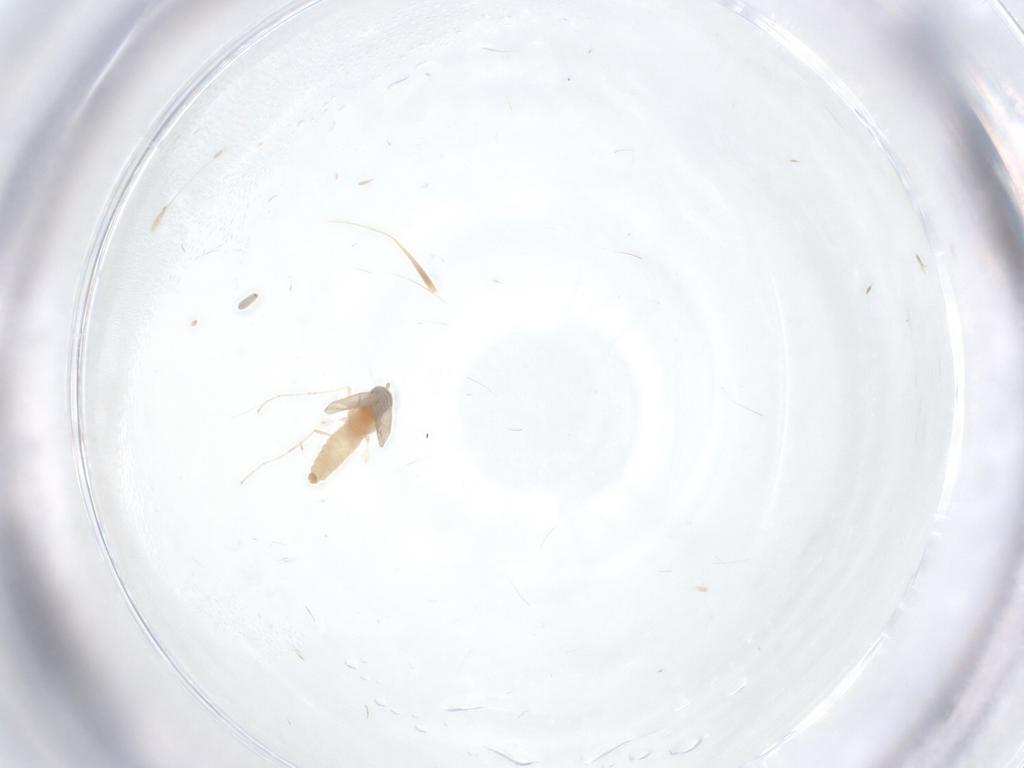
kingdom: Animalia
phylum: Arthropoda
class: Insecta
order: Diptera
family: Cecidomyiidae
